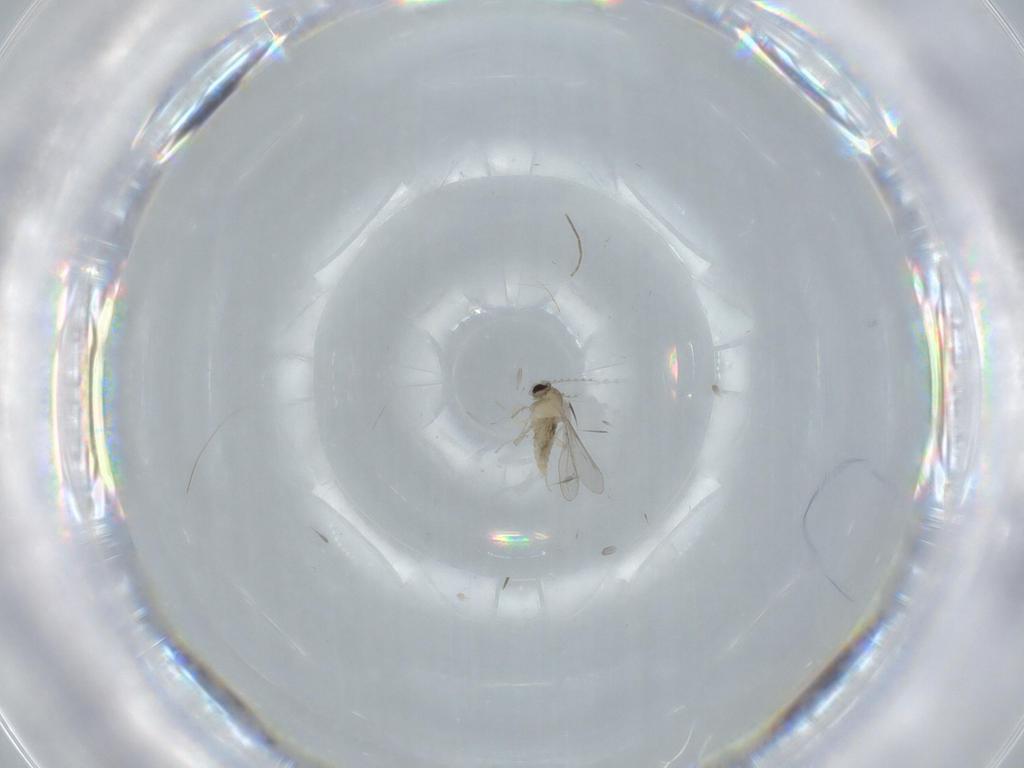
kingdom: Animalia
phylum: Arthropoda
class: Insecta
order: Diptera
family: Cecidomyiidae
